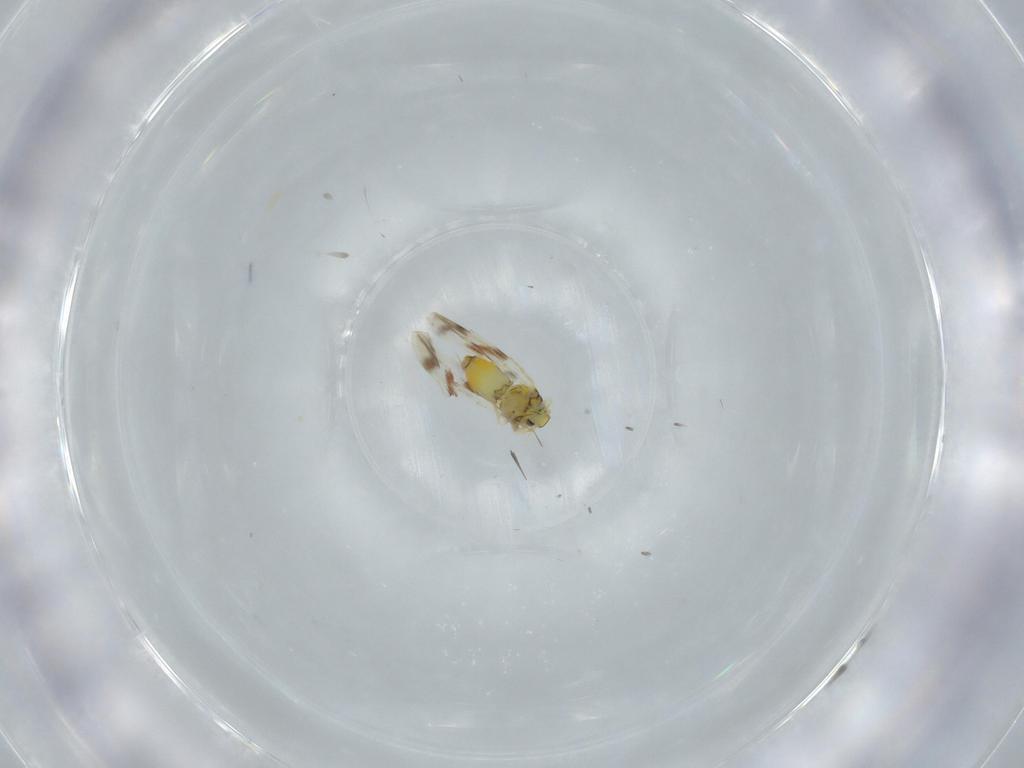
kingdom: Animalia
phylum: Arthropoda
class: Insecta
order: Hemiptera
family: Aleyrodidae
